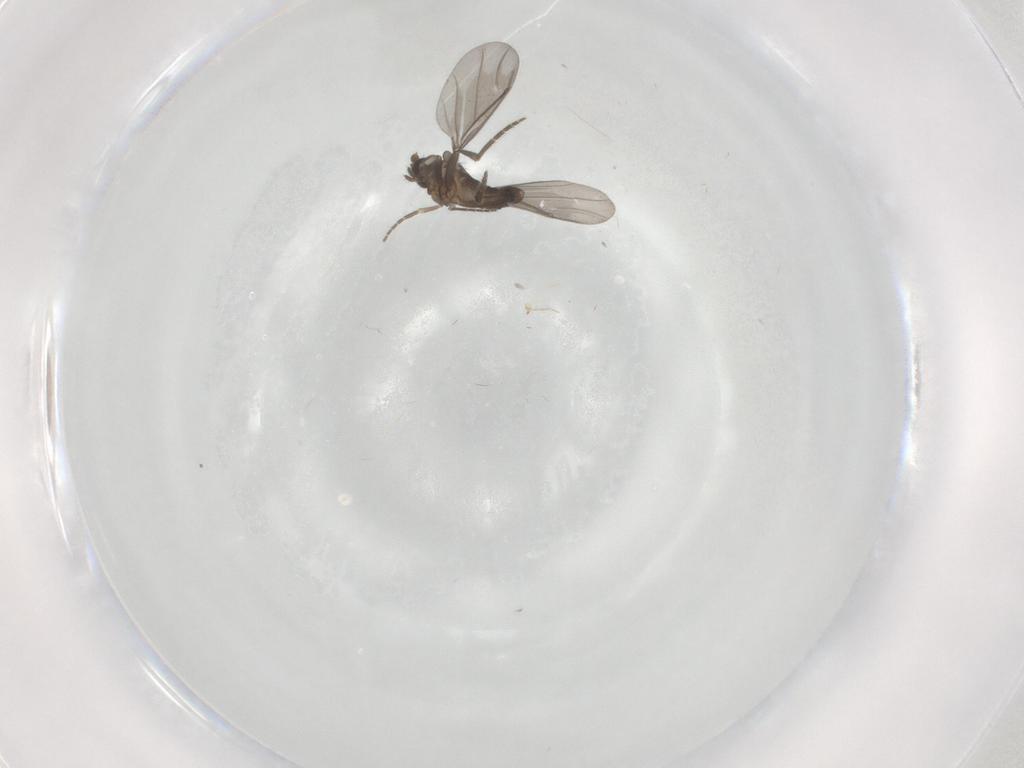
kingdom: Animalia
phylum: Arthropoda
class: Insecta
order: Diptera
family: Phoridae
